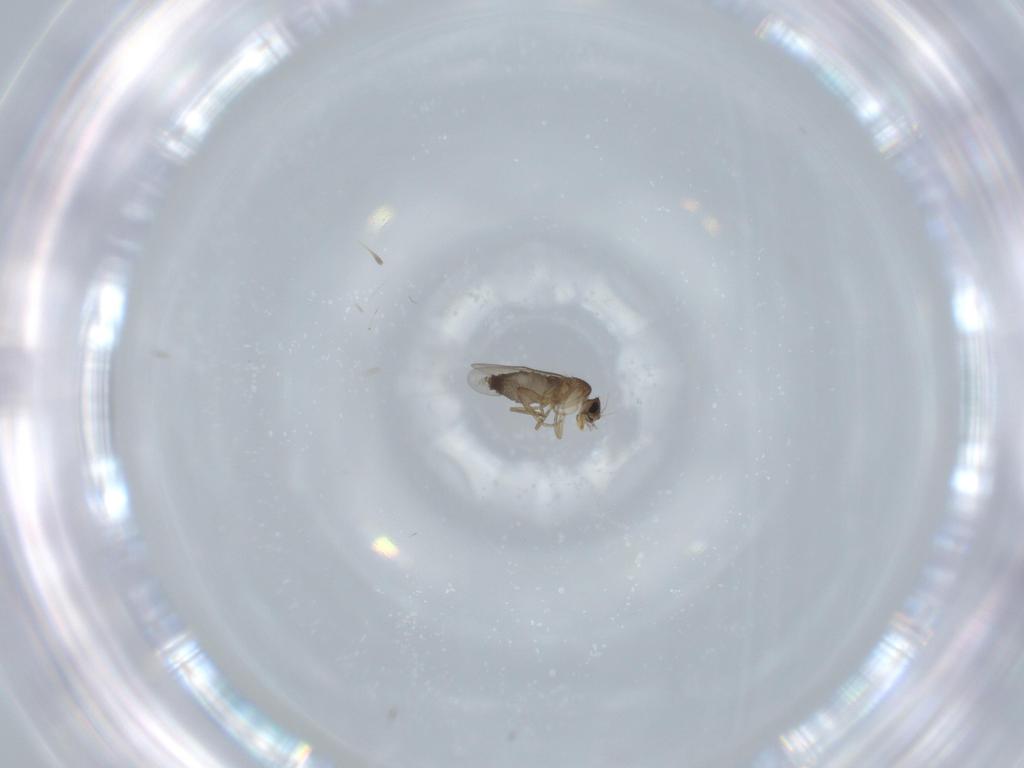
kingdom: Animalia
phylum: Arthropoda
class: Insecta
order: Diptera
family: Phoridae
